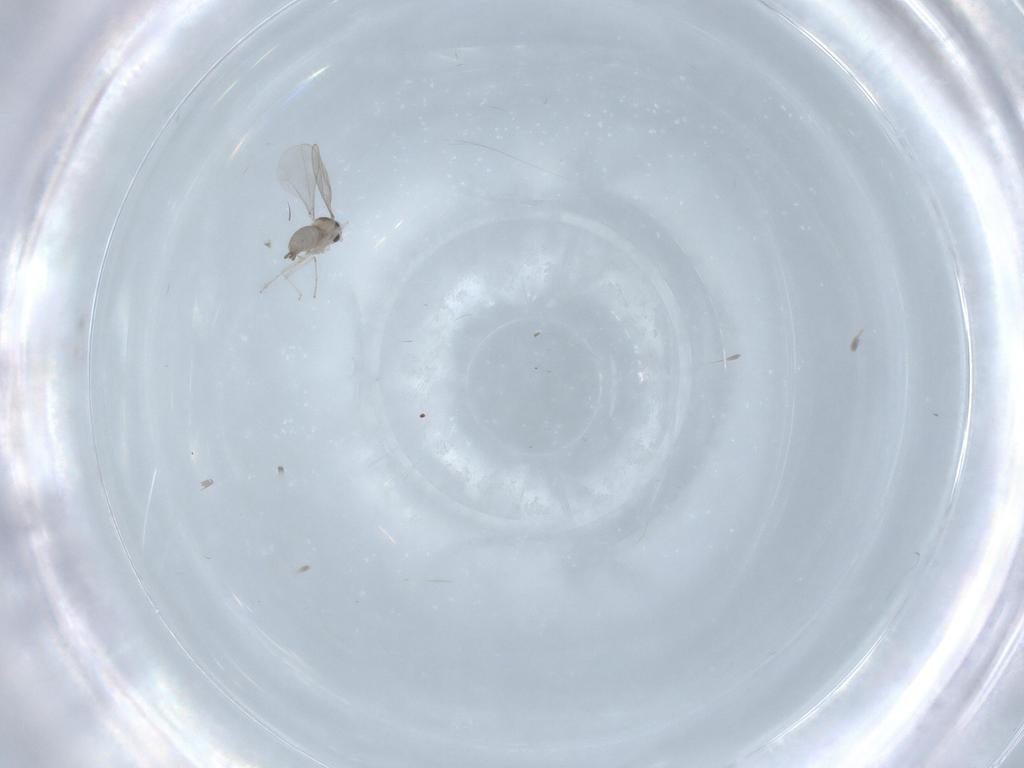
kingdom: Animalia
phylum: Arthropoda
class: Insecta
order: Diptera
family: Cecidomyiidae
